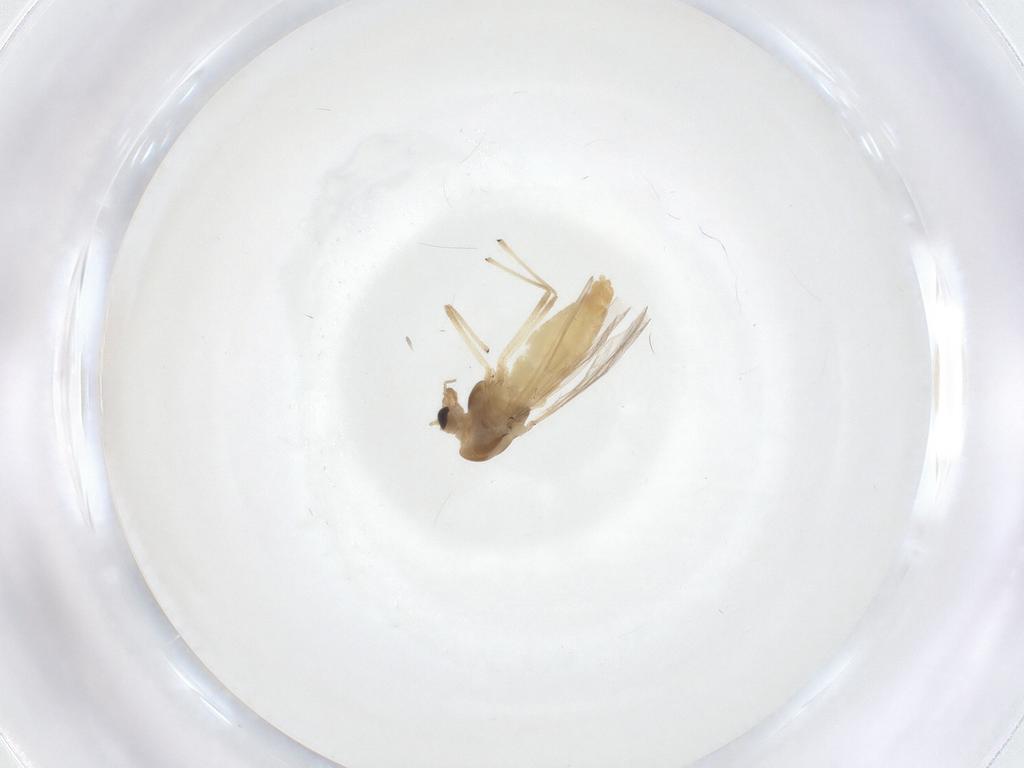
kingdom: Animalia
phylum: Arthropoda
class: Insecta
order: Diptera
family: Chironomidae
